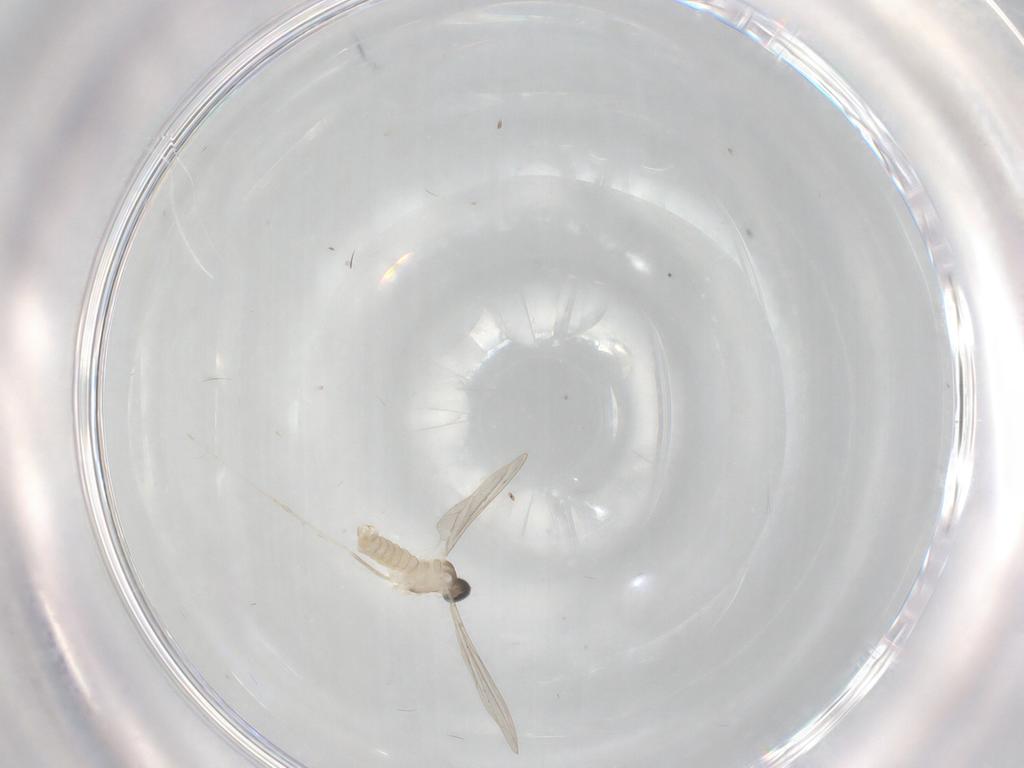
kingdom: Animalia
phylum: Arthropoda
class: Insecta
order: Diptera
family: Cecidomyiidae
